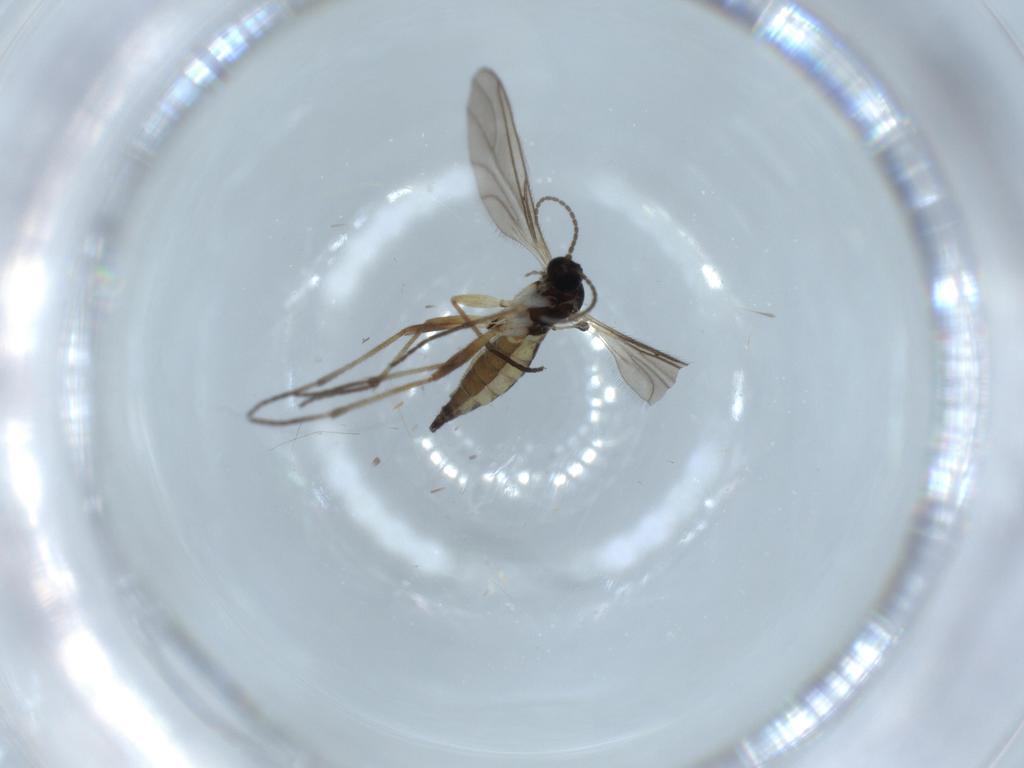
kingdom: Animalia
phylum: Arthropoda
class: Insecta
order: Diptera
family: Sciaridae
